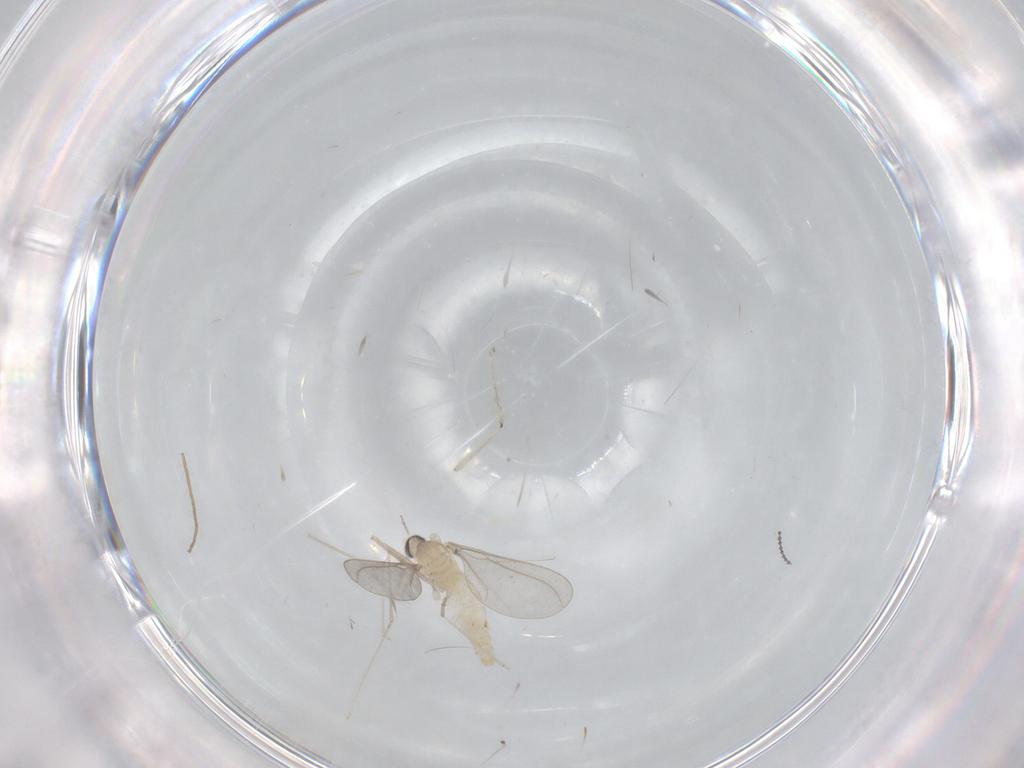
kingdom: Animalia
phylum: Arthropoda
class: Insecta
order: Diptera
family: Cecidomyiidae
